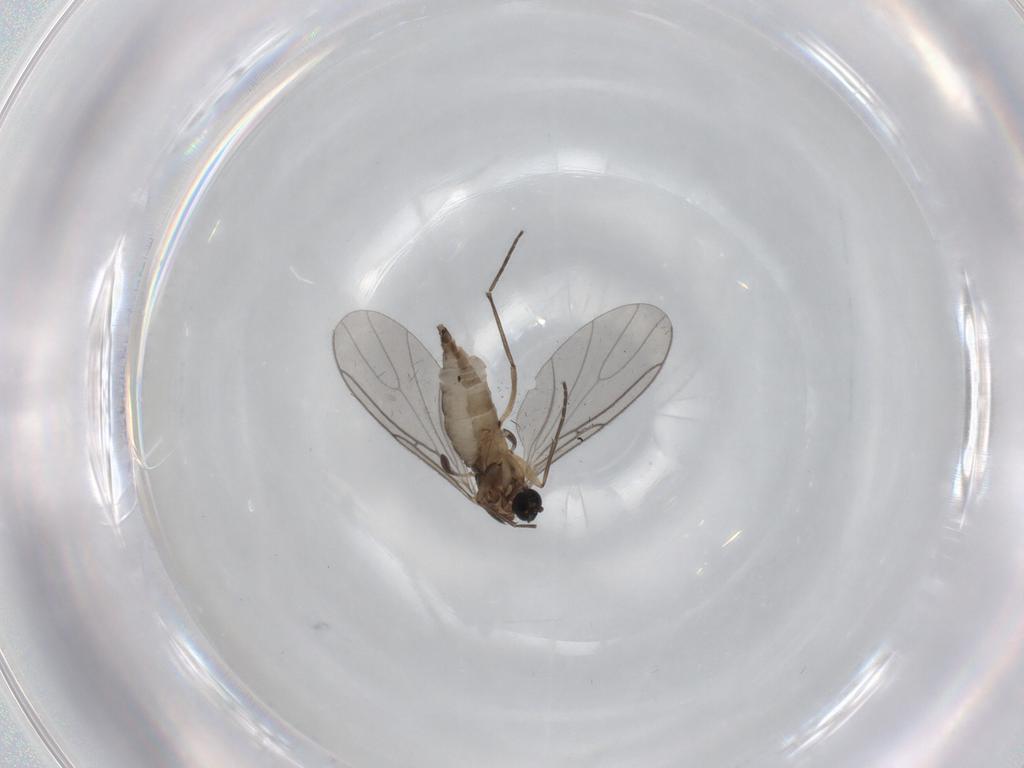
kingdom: Animalia
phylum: Arthropoda
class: Insecta
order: Diptera
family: Sciaridae
